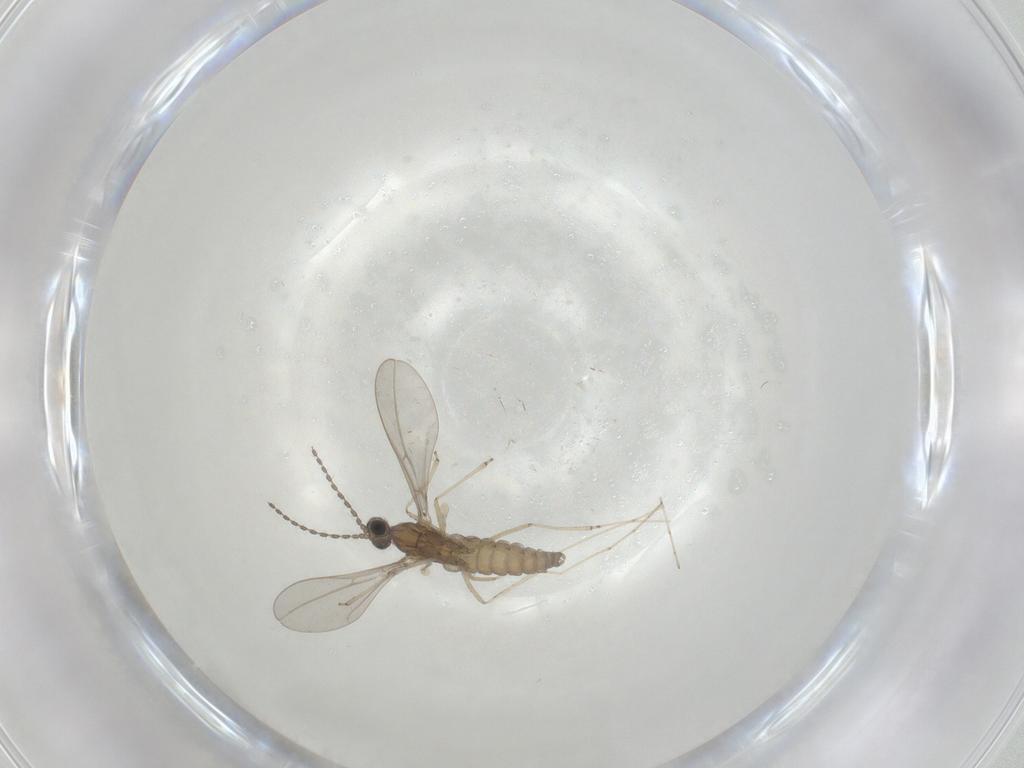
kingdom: Animalia
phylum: Arthropoda
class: Insecta
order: Diptera
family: Cecidomyiidae
